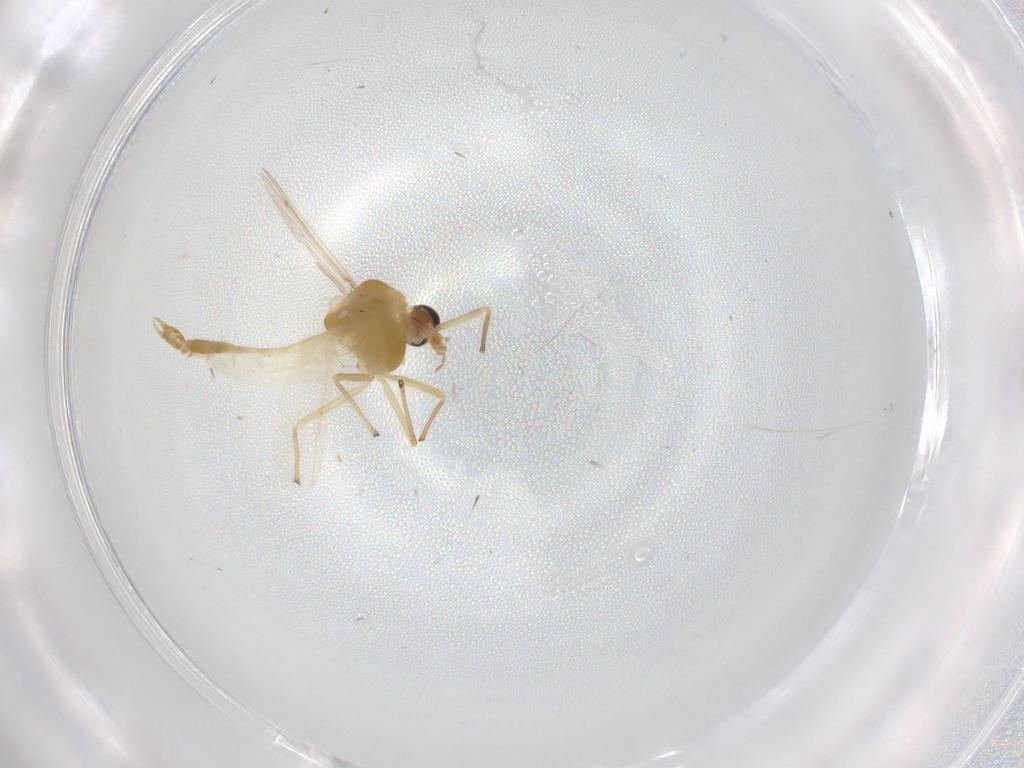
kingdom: Animalia
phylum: Arthropoda
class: Insecta
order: Diptera
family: Chironomidae
